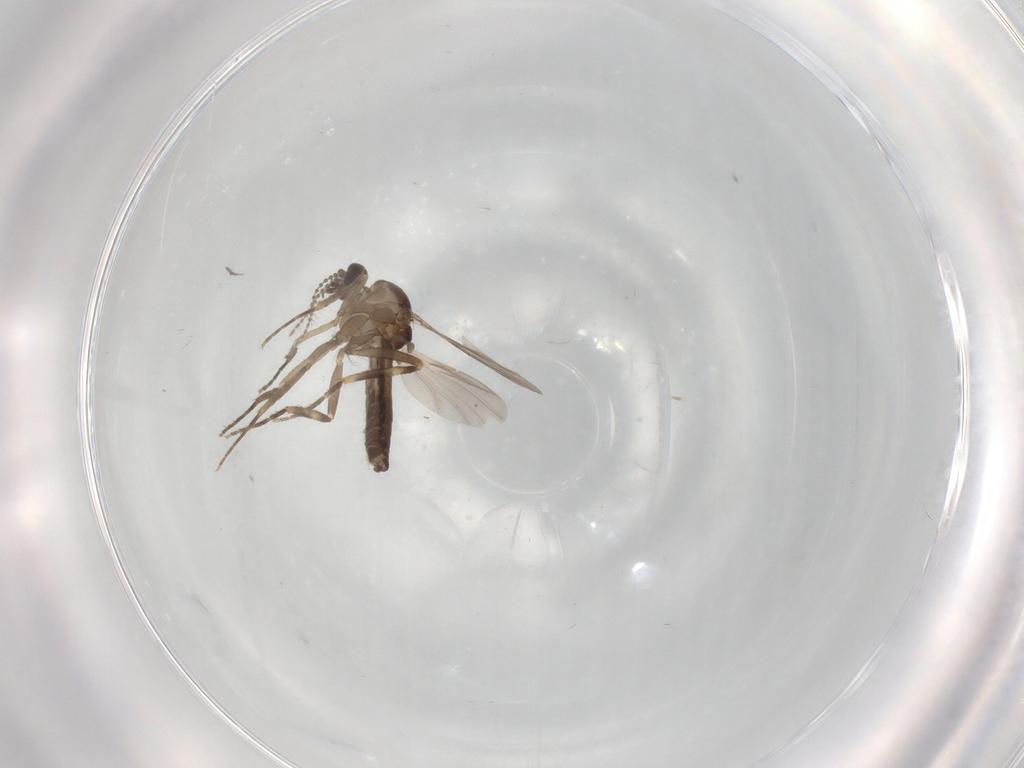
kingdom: Animalia
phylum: Arthropoda
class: Insecta
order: Diptera
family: Ceratopogonidae
